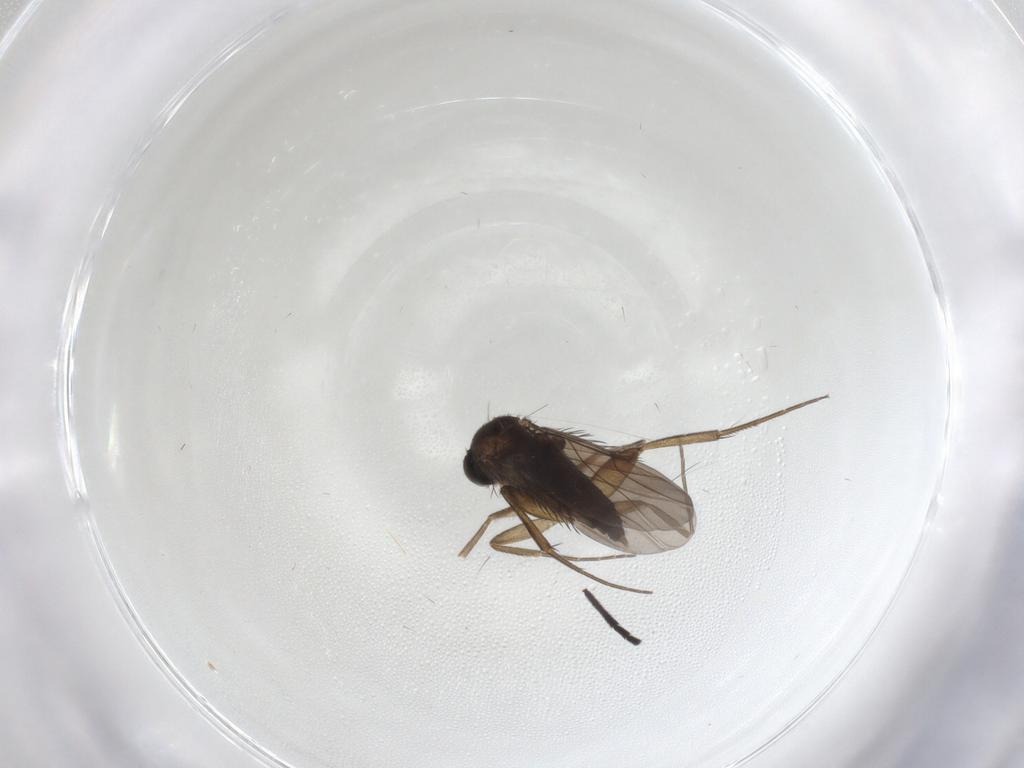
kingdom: Animalia
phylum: Arthropoda
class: Insecta
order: Diptera
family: Phoridae
